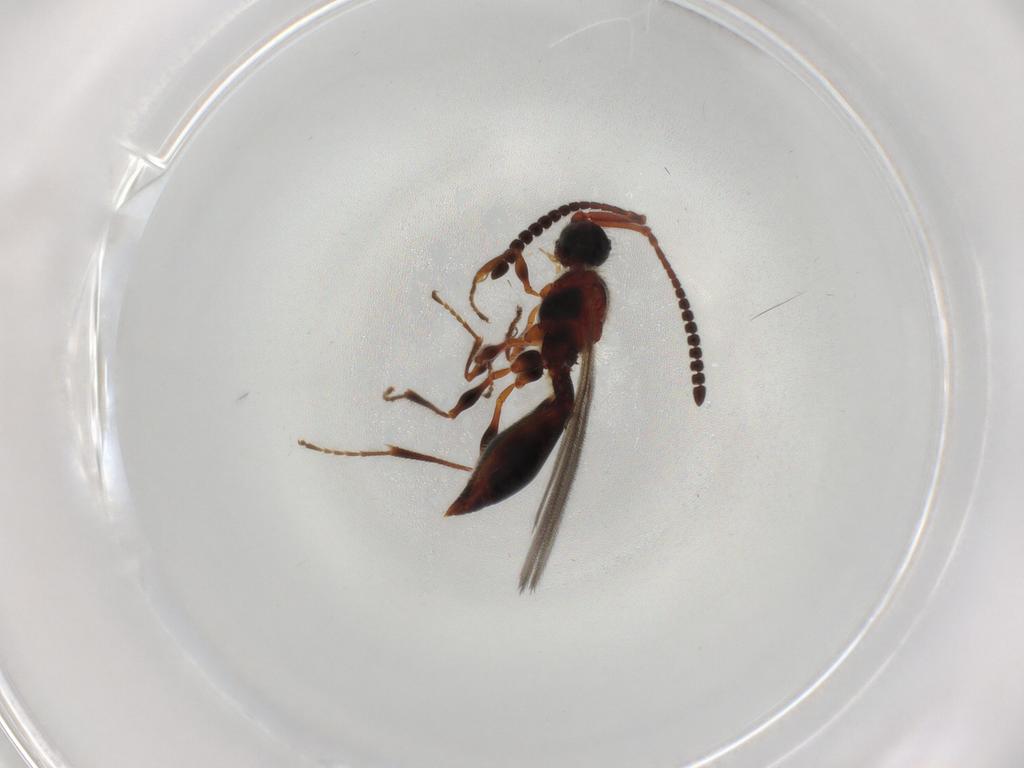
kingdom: Animalia
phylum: Arthropoda
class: Insecta
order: Hymenoptera
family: Diapriidae
